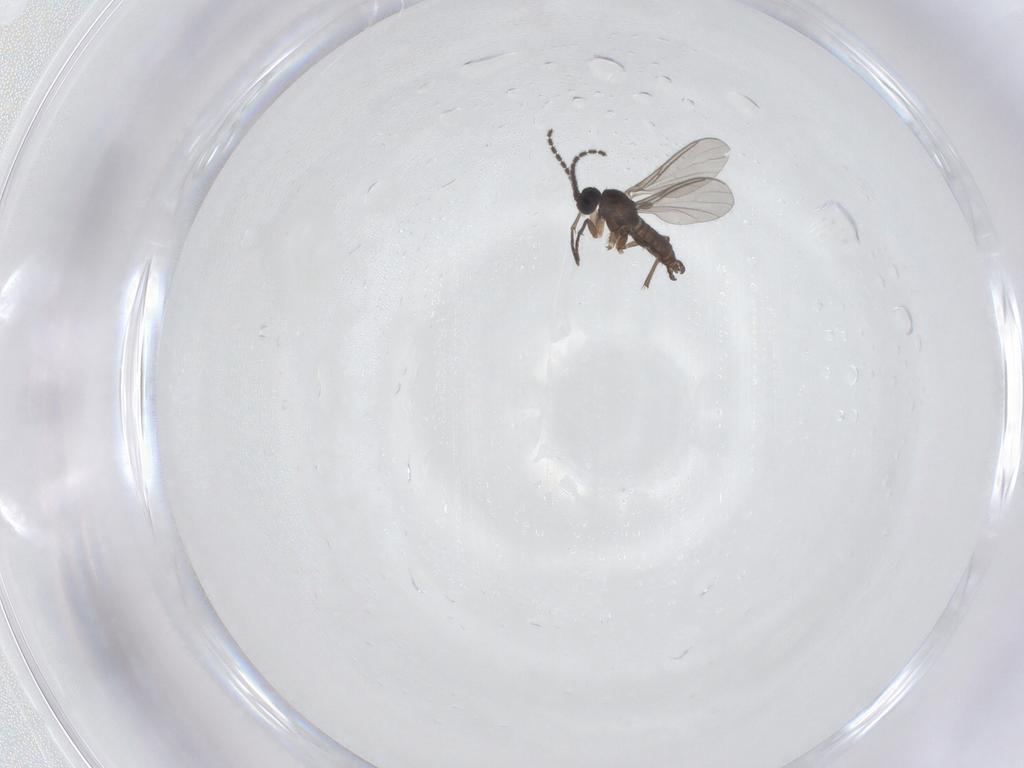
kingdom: Animalia
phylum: Arthropoda
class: Insecta
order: Diptera
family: Sciaridae
